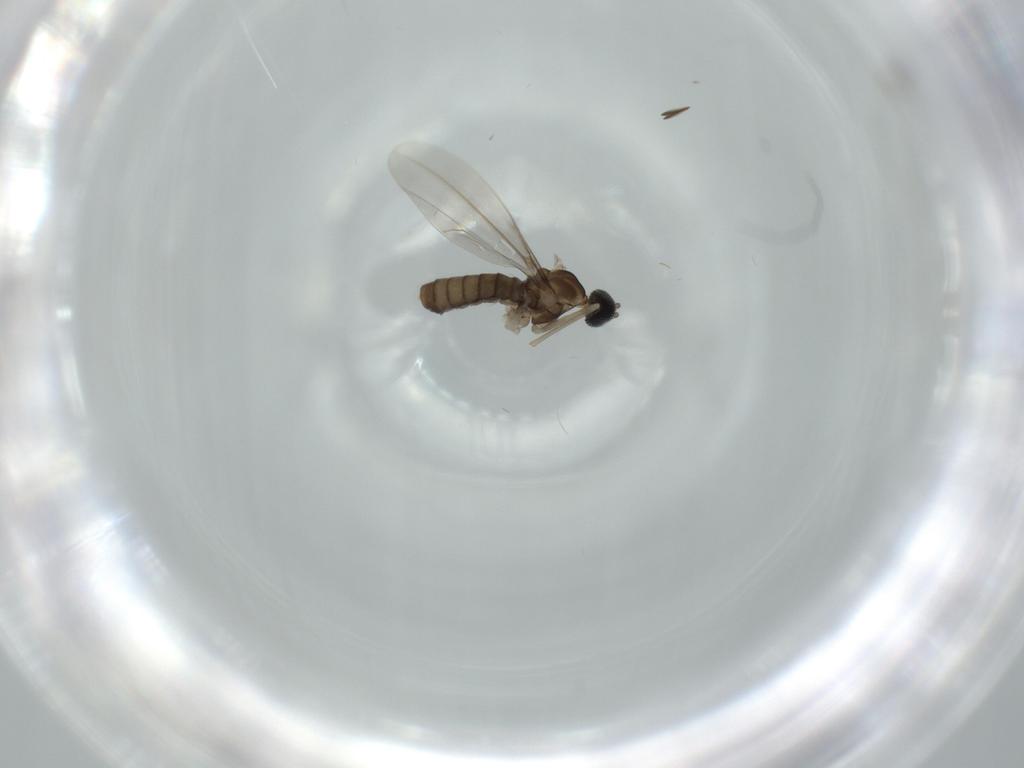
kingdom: Animalia
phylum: Arthropoda
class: Insecta
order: Diptera
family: Cecidomyiidae
